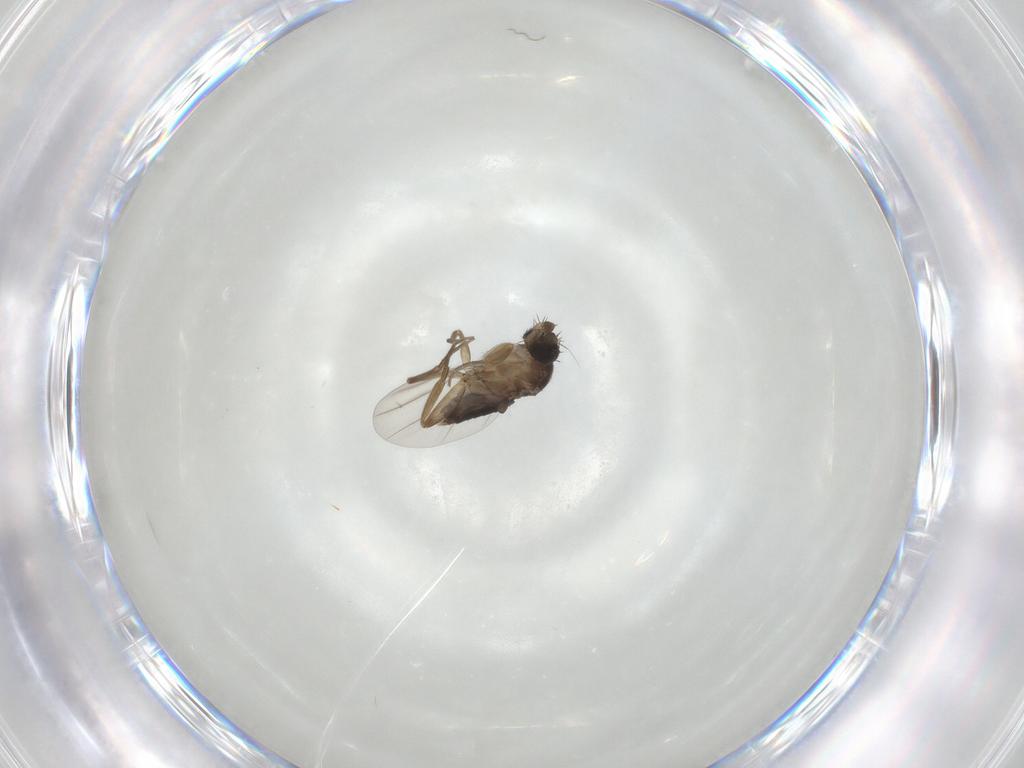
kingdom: Animalia
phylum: Arthropoda
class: Insecta
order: Diptera
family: Phoridae
